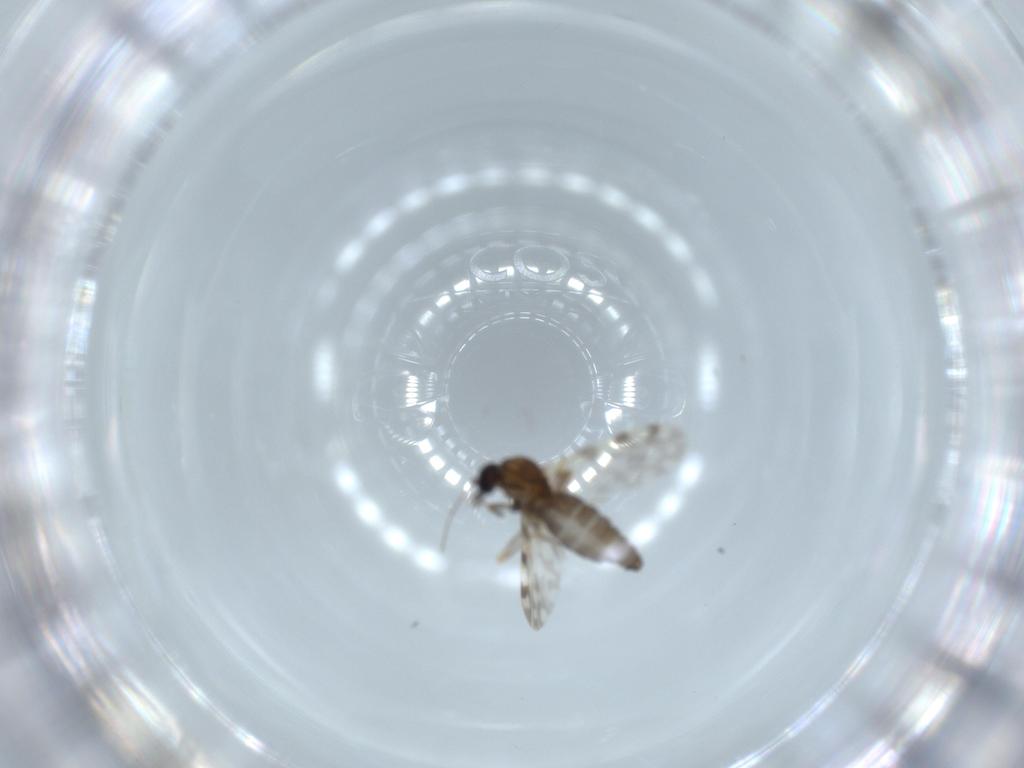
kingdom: Animalia
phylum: Arthropoda
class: Insecta
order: Diptera
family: Ceratopogonidae
